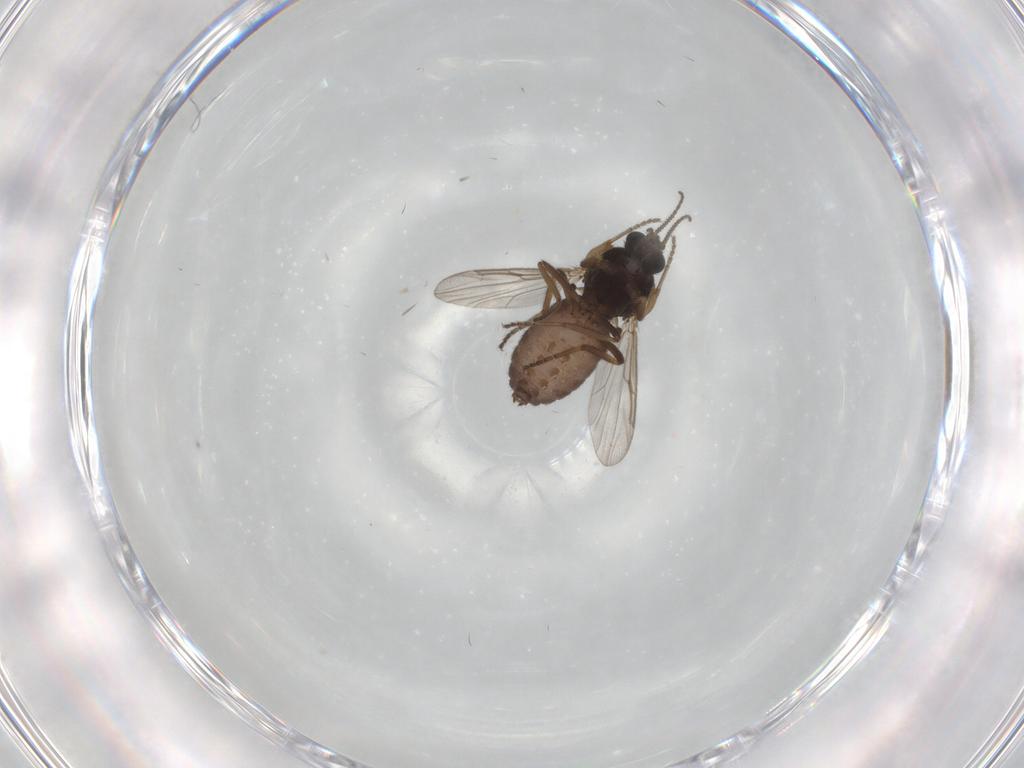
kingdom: Animalia
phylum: Arthropoda
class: Insecta
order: Diptera
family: Ceratopogonidae
